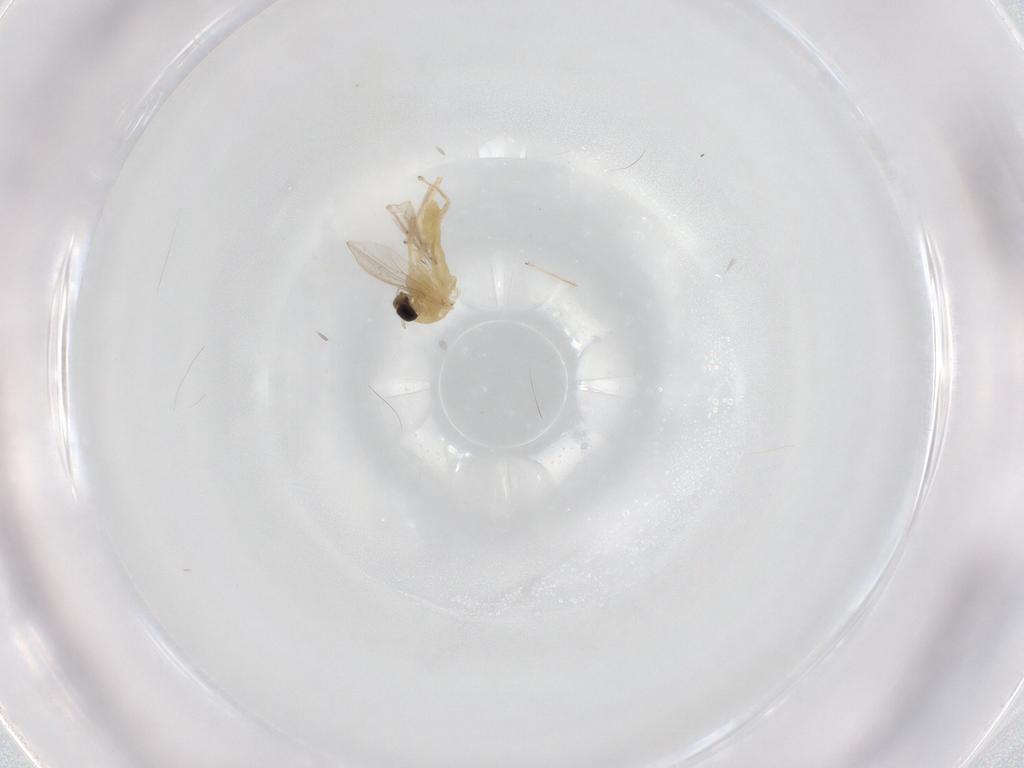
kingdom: Animalia
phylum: Arthropoda
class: Insecta
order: Diptera
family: Chironomidae
